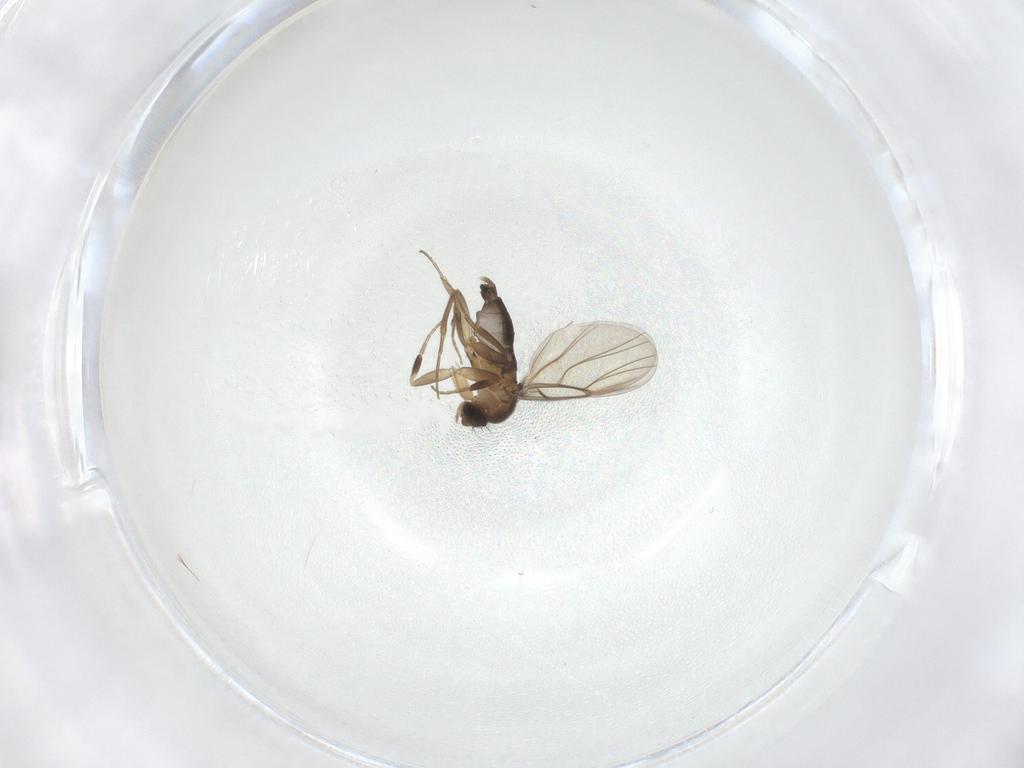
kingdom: Animalia
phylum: Arthropoda
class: Insecta
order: Diptera
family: Phoridae
